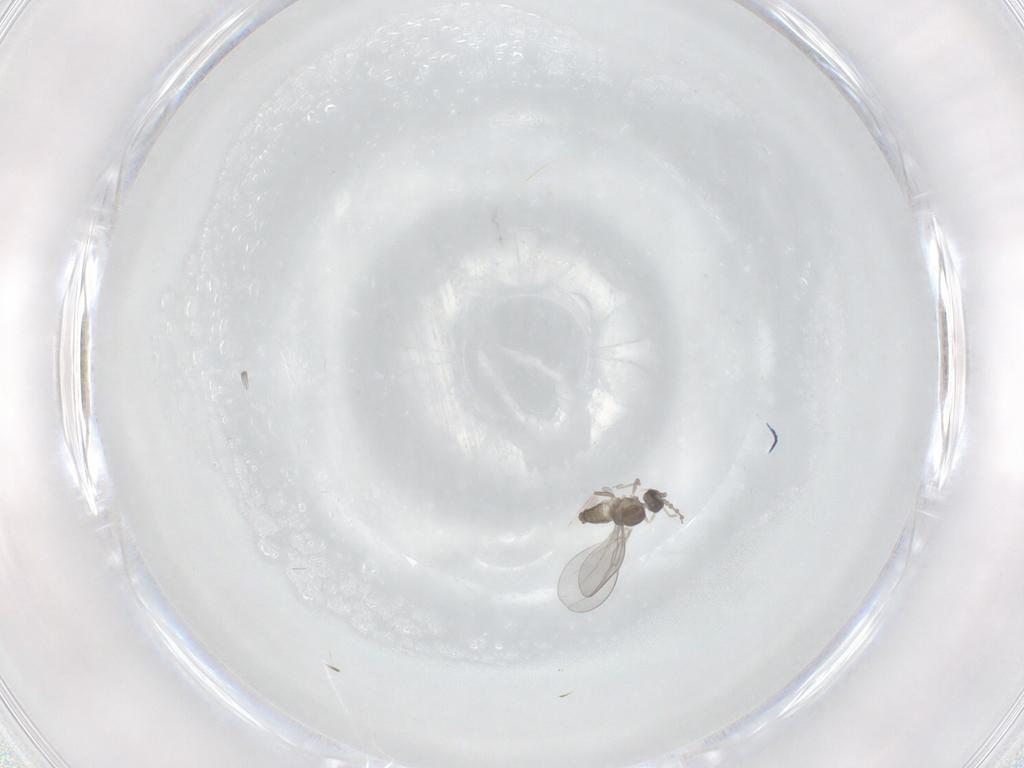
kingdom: Animalia
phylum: Arthropoda
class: Insecta
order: Diptera
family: Cecidomyiidae
